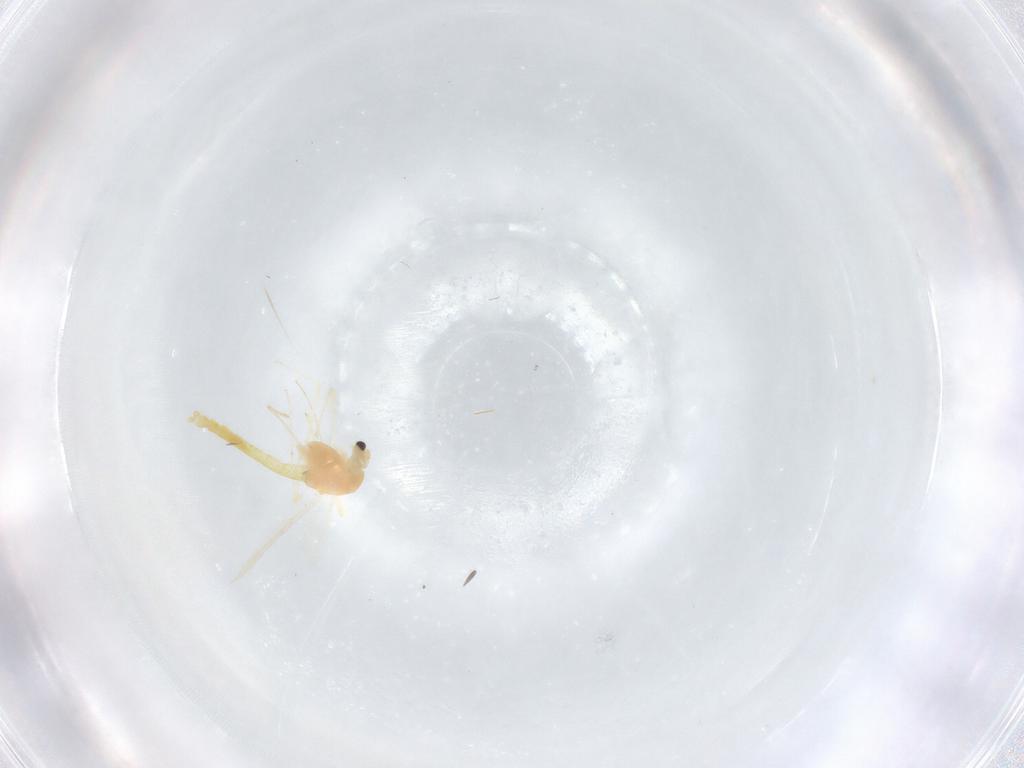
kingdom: Animalia
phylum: Arthropoda
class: Insecta
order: Diptera
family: Chironomidae
